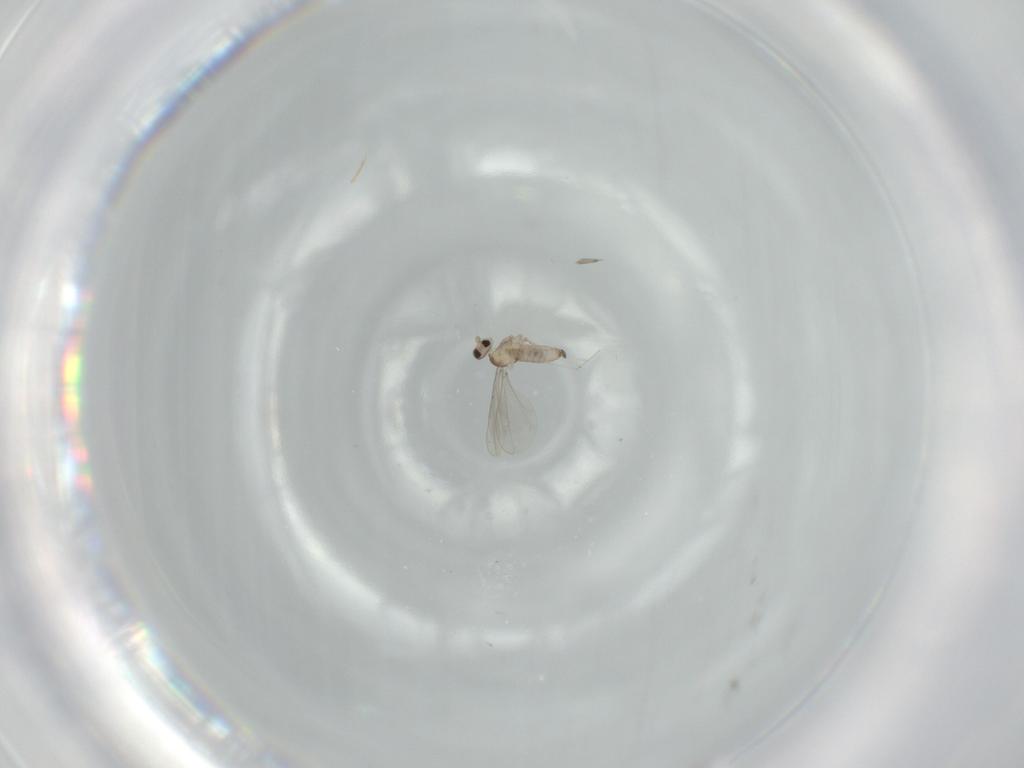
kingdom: Animalia
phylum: Arthropoda
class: Insecta
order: Diptera
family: Cecidomyiidae
